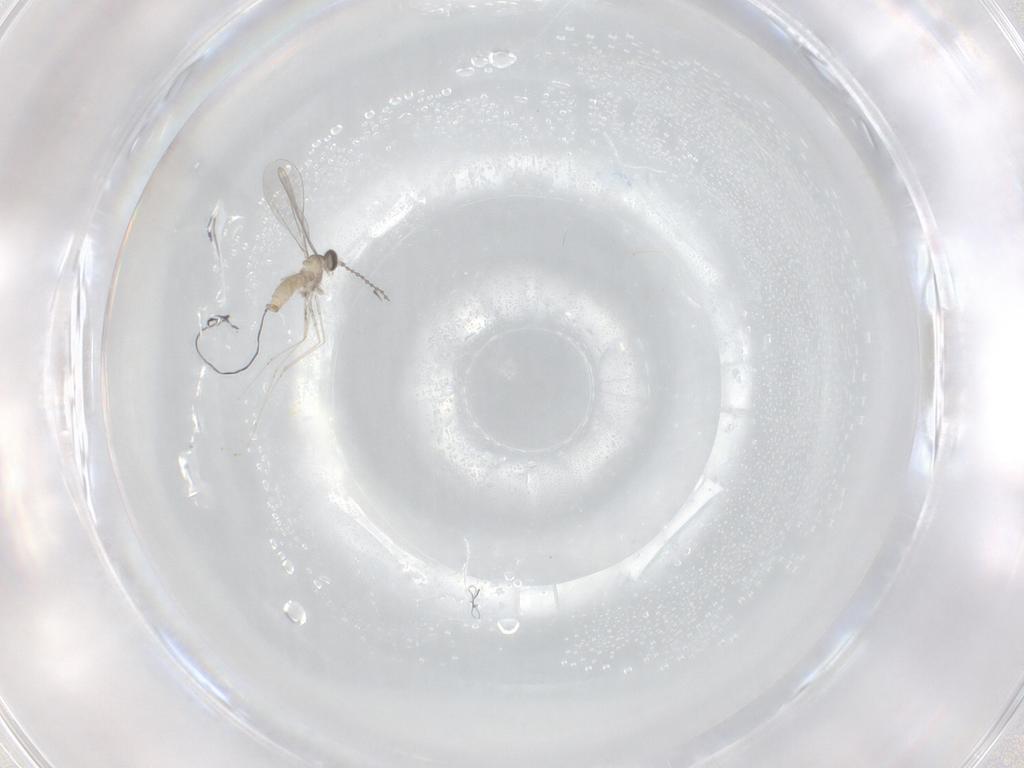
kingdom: Animalia
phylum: Arthropoda
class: Insecta
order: Diptera
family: Cecidomyiidae
